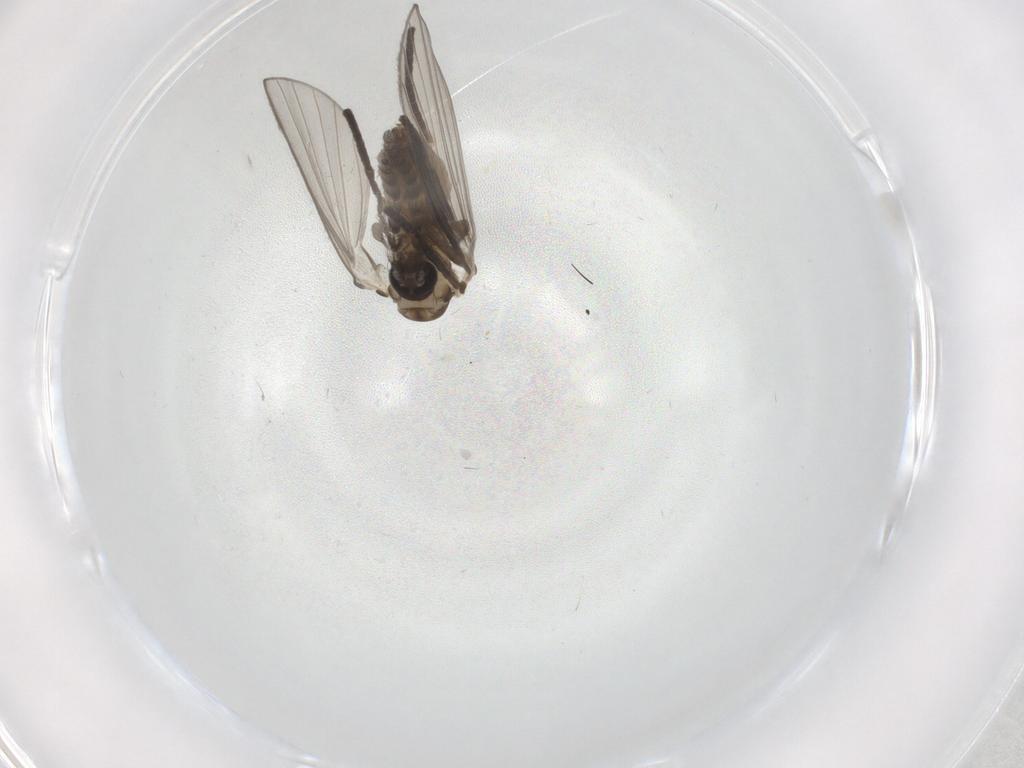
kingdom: Animalia
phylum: Arthropoda
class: Insecta
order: Diptera
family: Psychodidae
